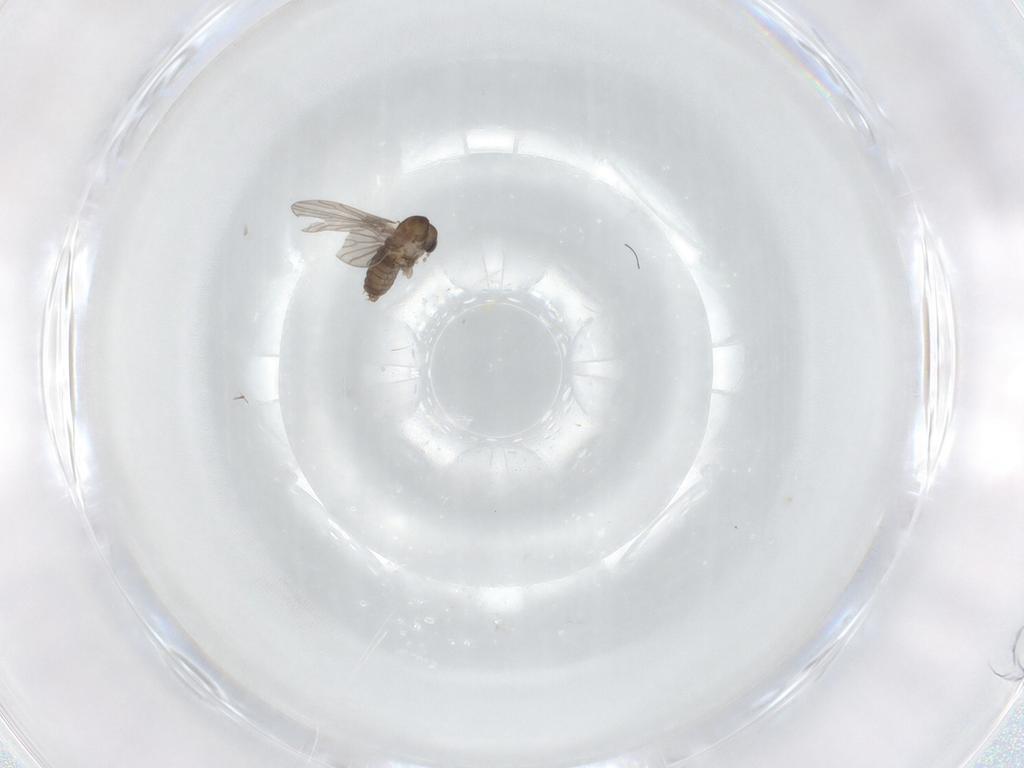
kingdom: Animalia
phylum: Arthropoda
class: Insecta
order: Diptera
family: Psychodidae
